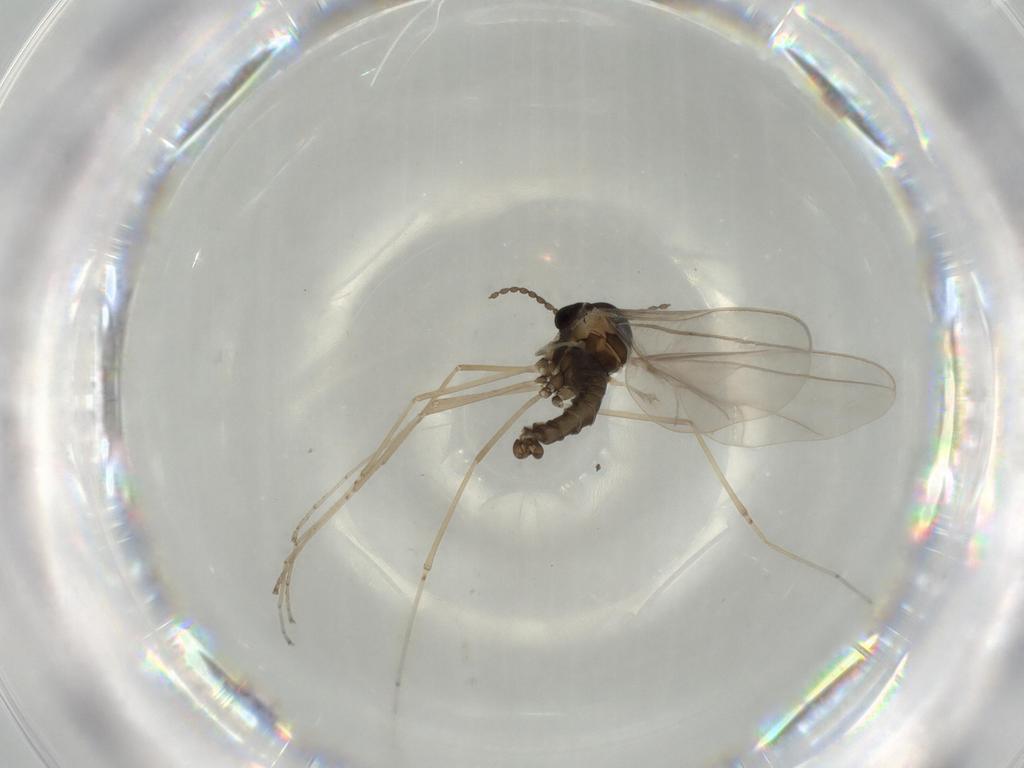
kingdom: Animalia
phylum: Arthropoda
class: Insecta
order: Diptera
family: Cecidomyiidae
